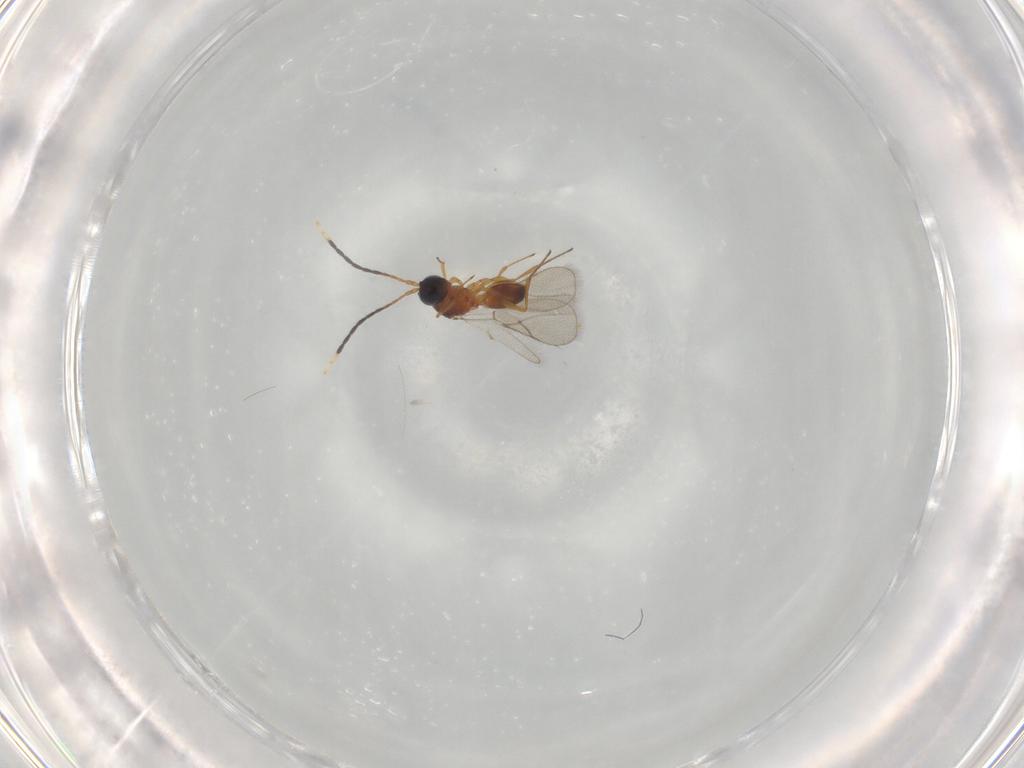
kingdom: Animalia
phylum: Arthropoda
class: Insecta
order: Hymenoptera
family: Figitidae
